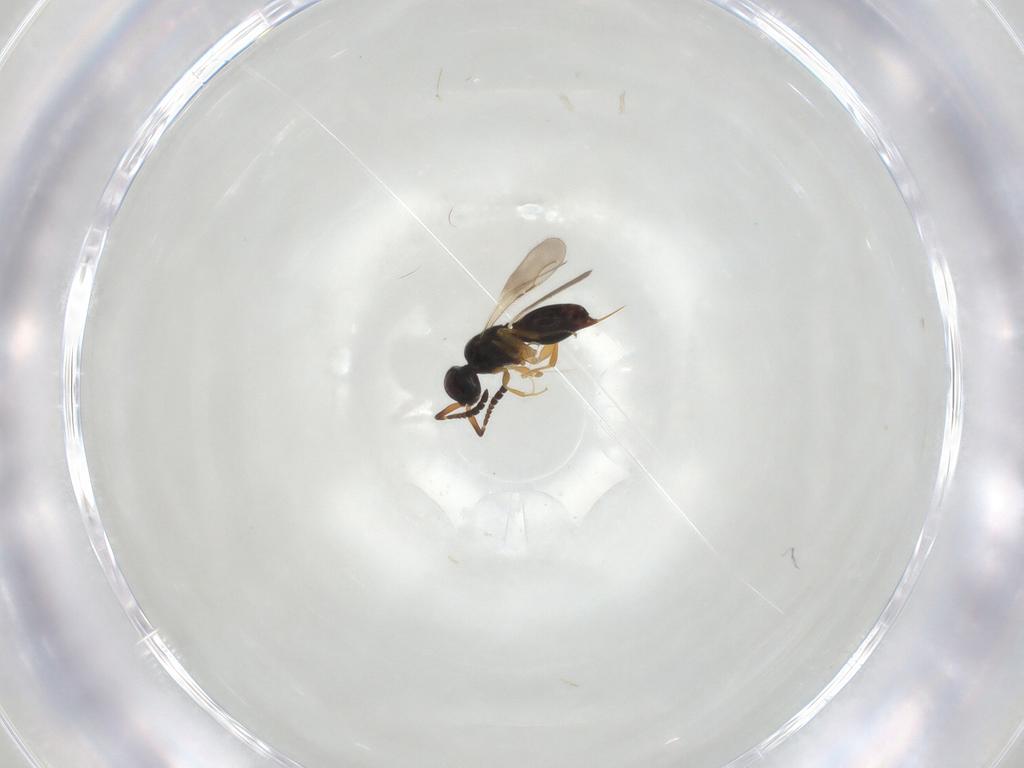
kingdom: Animalia
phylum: Arthropoda
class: Insecta
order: Hymenoptera
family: Ceraphronidae
